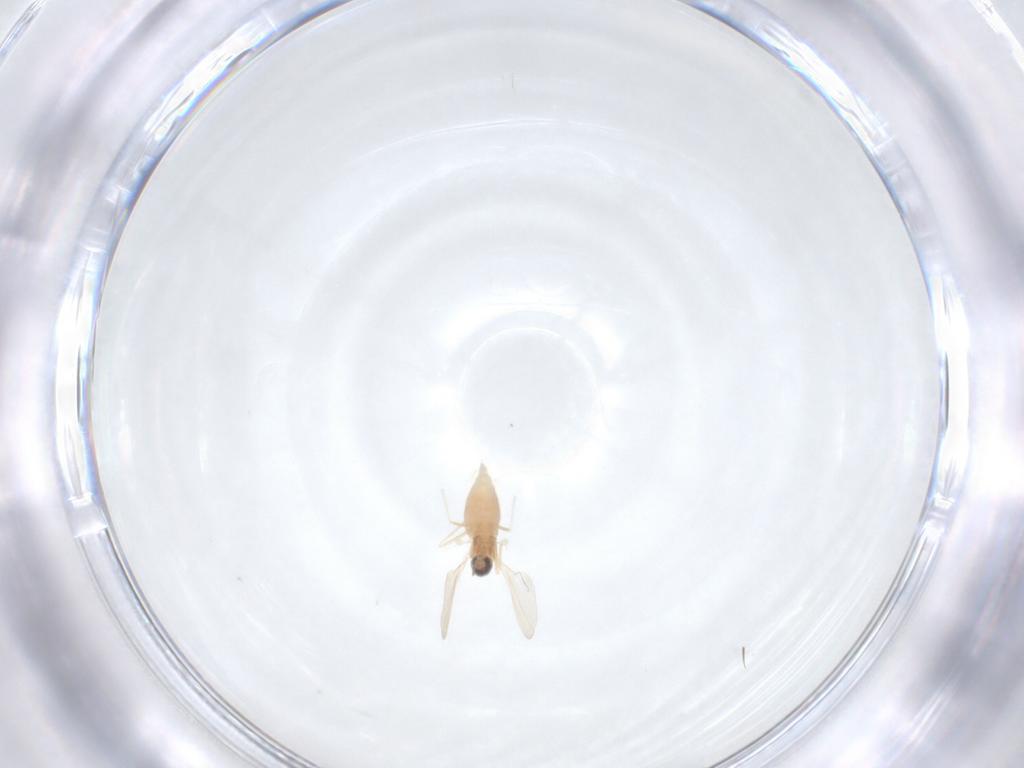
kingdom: Animalia
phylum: Arthropoda
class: Insecta
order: Diptera
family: Cecidomyiidae
